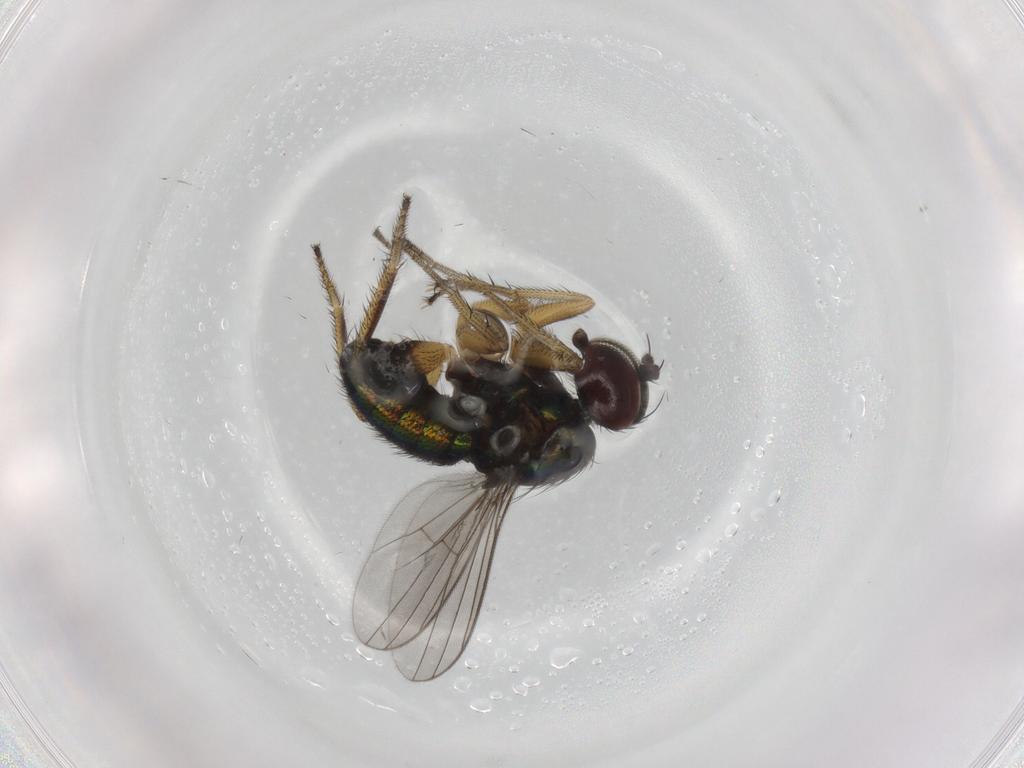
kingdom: Animalia
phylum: Arthropoda
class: Insecta
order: Diptera
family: Dolichopodidae
